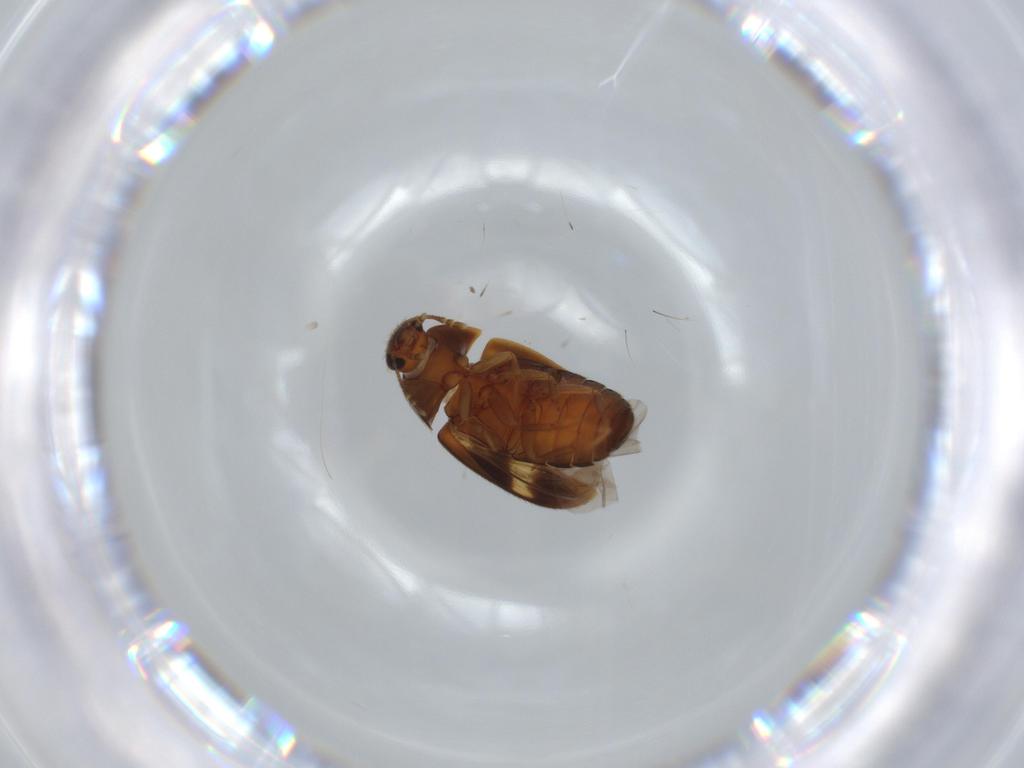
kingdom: Animalia
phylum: Arthropoda
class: Insecta
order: Coleoptera
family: Mycetophagidae
